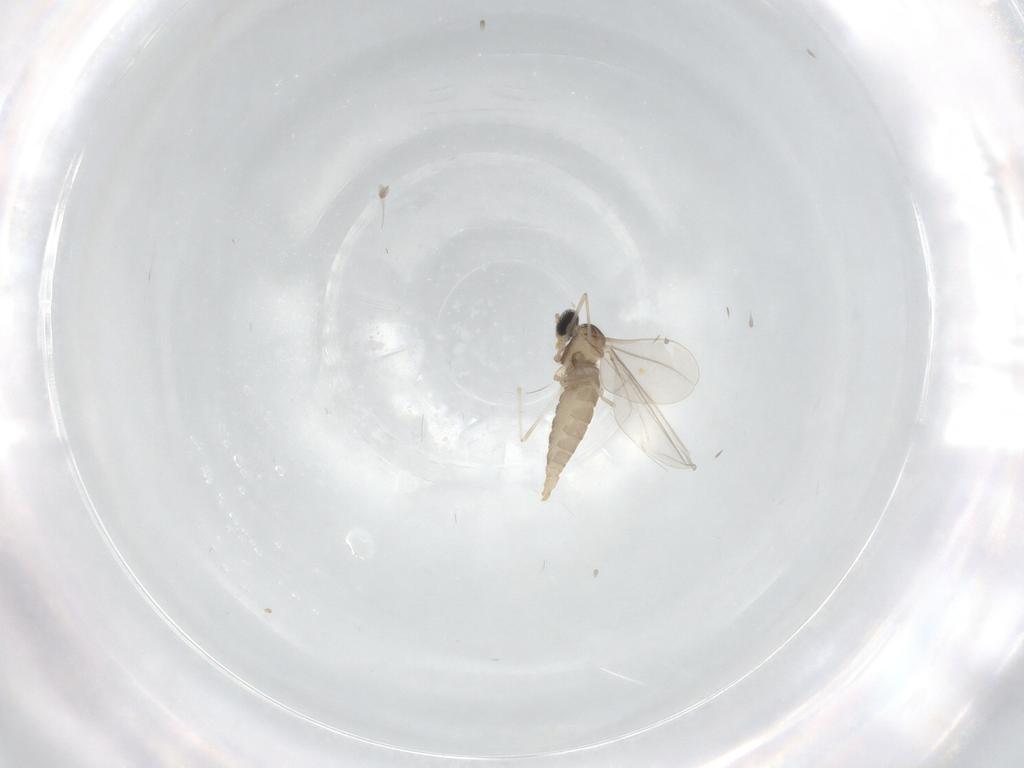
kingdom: Animalia
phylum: Arthropoda
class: Insecta
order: Diptera
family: Cecidomyiidae
